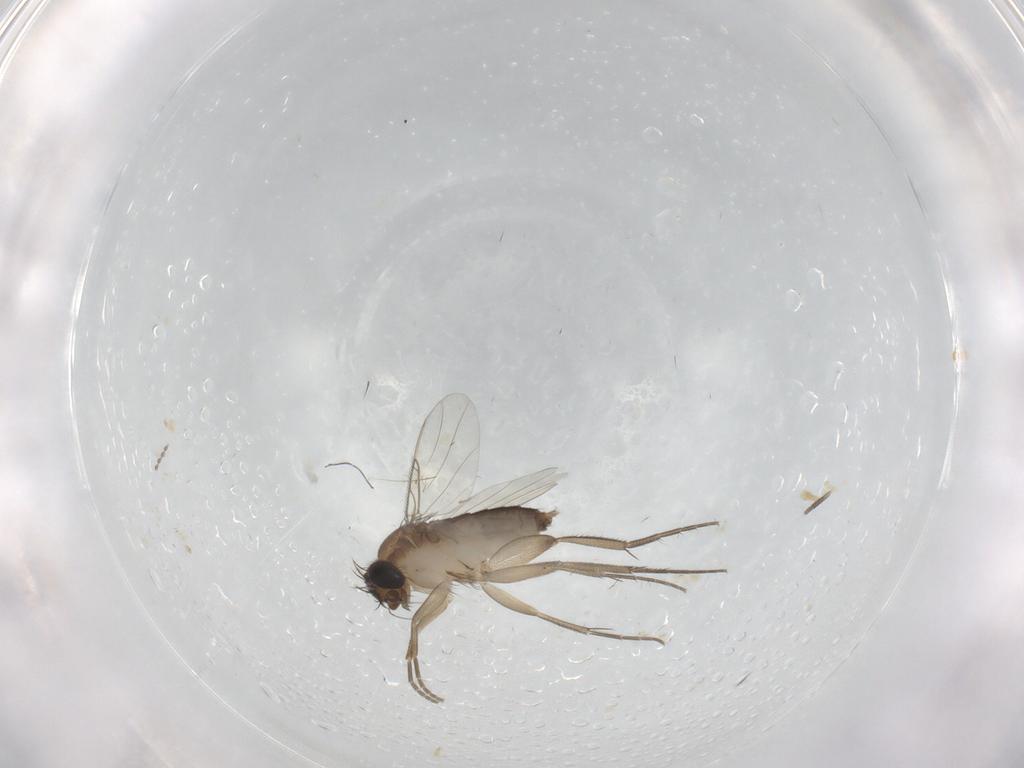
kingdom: Animalia
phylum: Arthropoda
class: Insecta
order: Diptera
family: Phoridae
